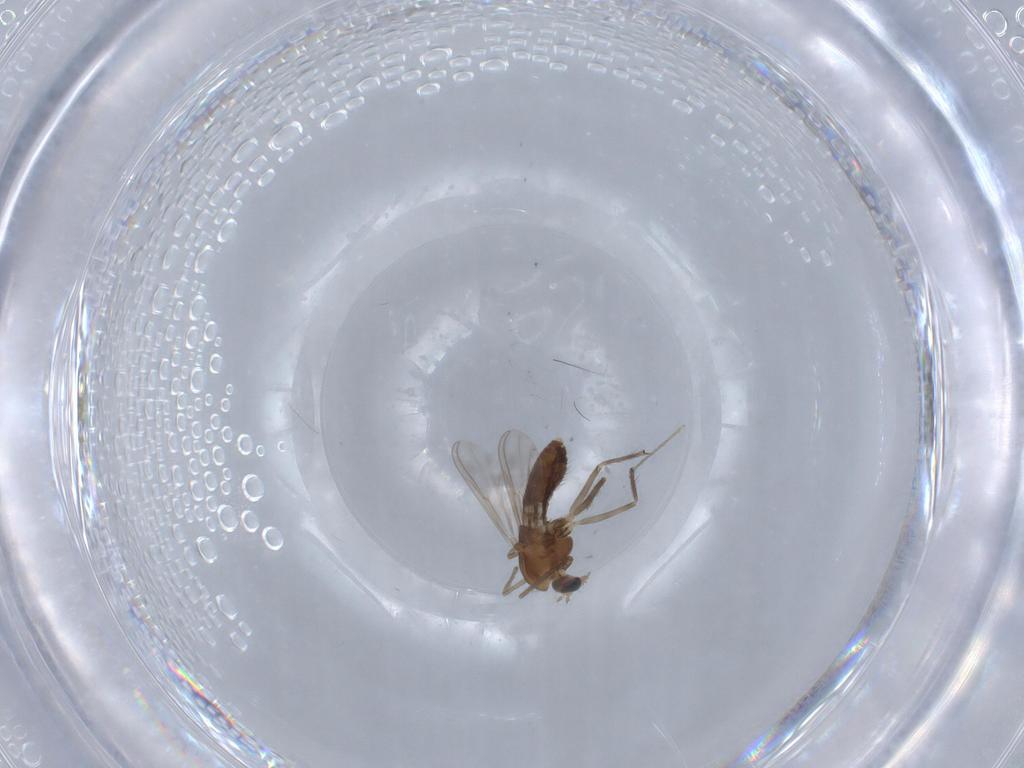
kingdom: Animalia
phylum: Arthropoda
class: Insecta
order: Diptera
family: Chironomidae
